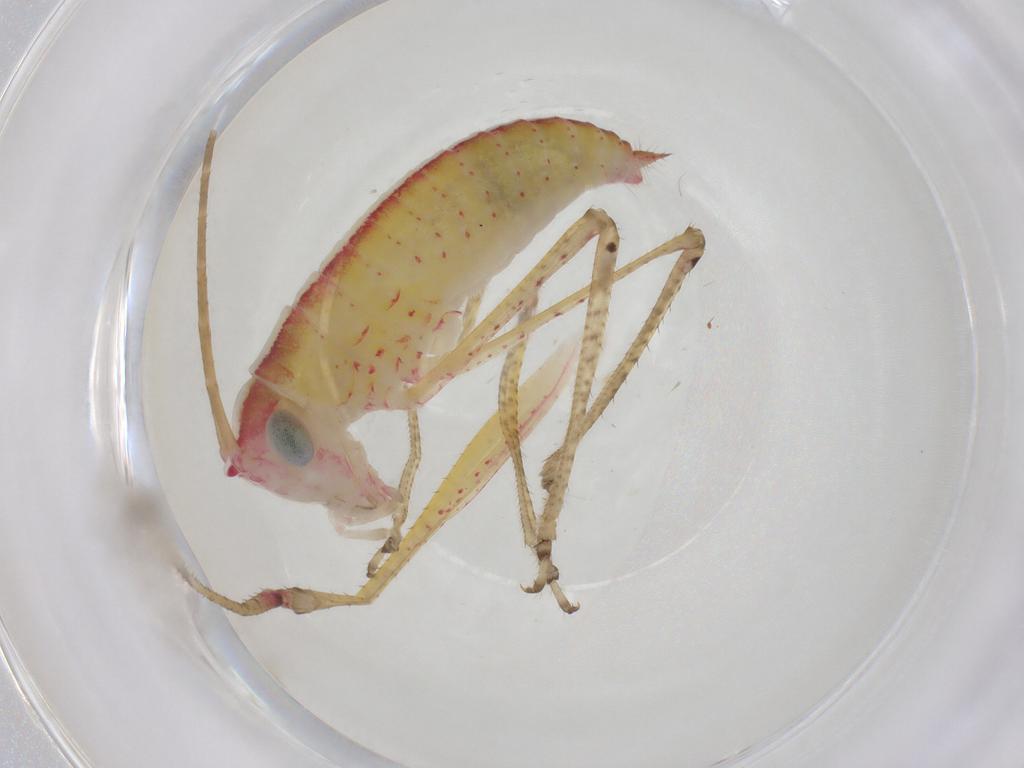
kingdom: Animalia
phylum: Arthropoda
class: Insecta
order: Orthoptera
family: Tettigoniidae
